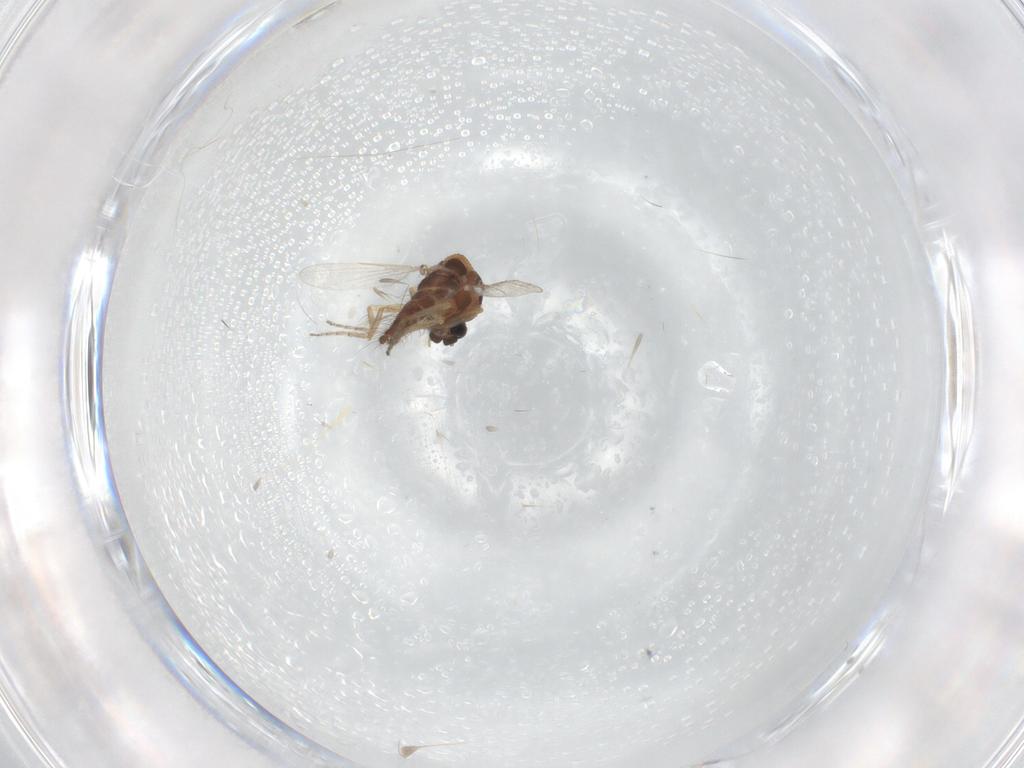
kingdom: Animalia
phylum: Arthropoda
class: Insecta
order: Diptera
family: Ceratopogonidae
